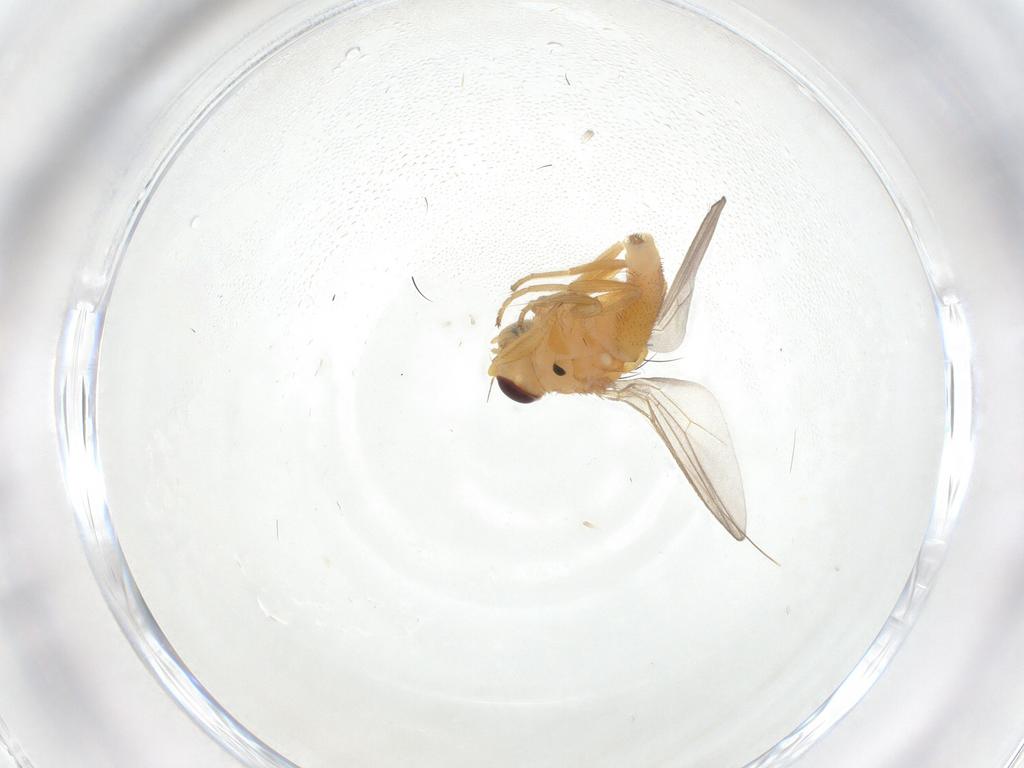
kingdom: Animalia
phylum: Arthropoda
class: Insecta
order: Diptera
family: Chloropidae
